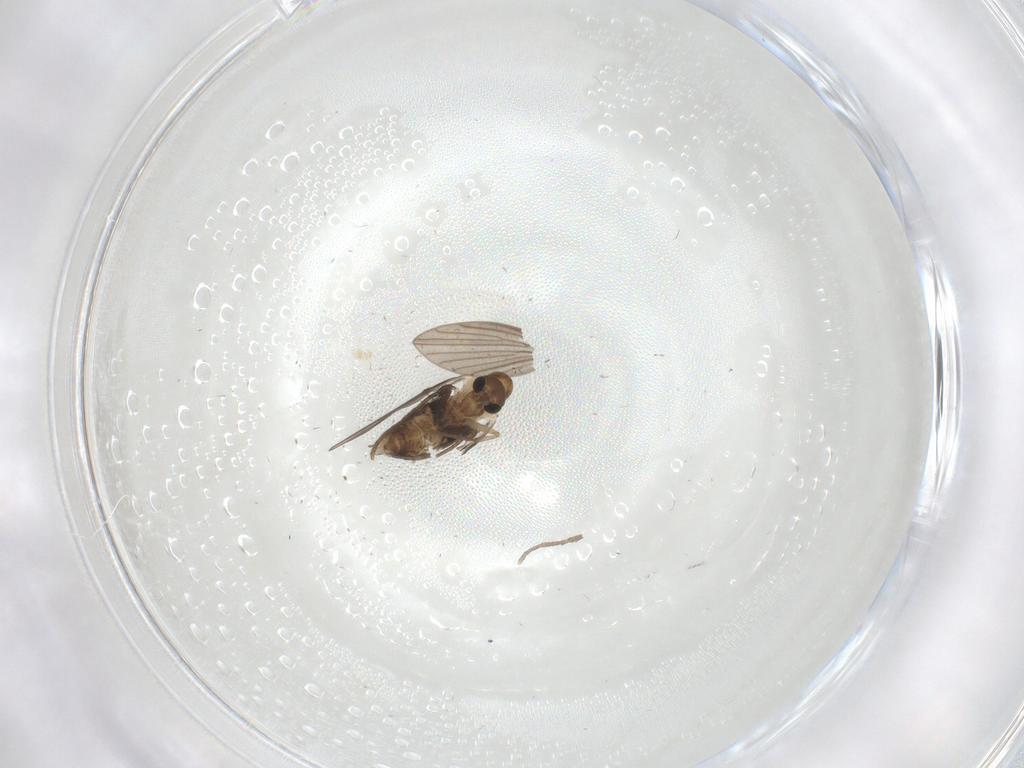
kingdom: Animalia
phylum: Arthropoda
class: Insecta
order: Diptera
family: Psychodidae
